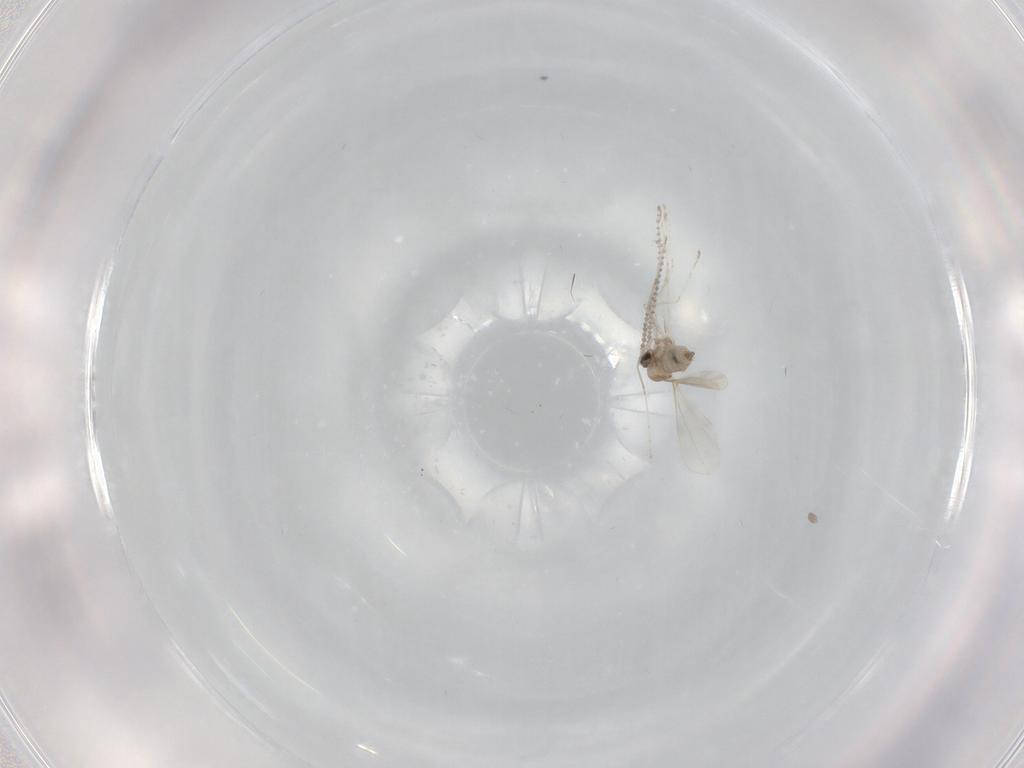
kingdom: Animalia
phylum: Arthropoda
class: Insecta
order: Diptera
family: Cecidomyiidae
